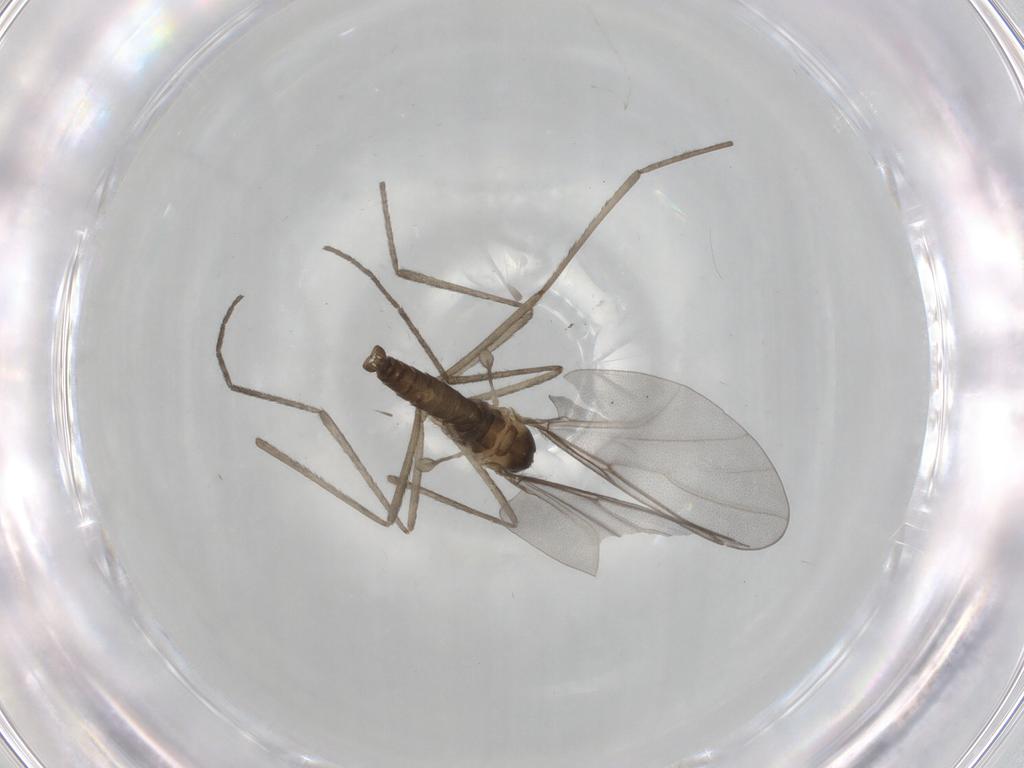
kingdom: Animalia
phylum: Arthropoda
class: Insecta
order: Diptera
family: Cecidomyiidae
